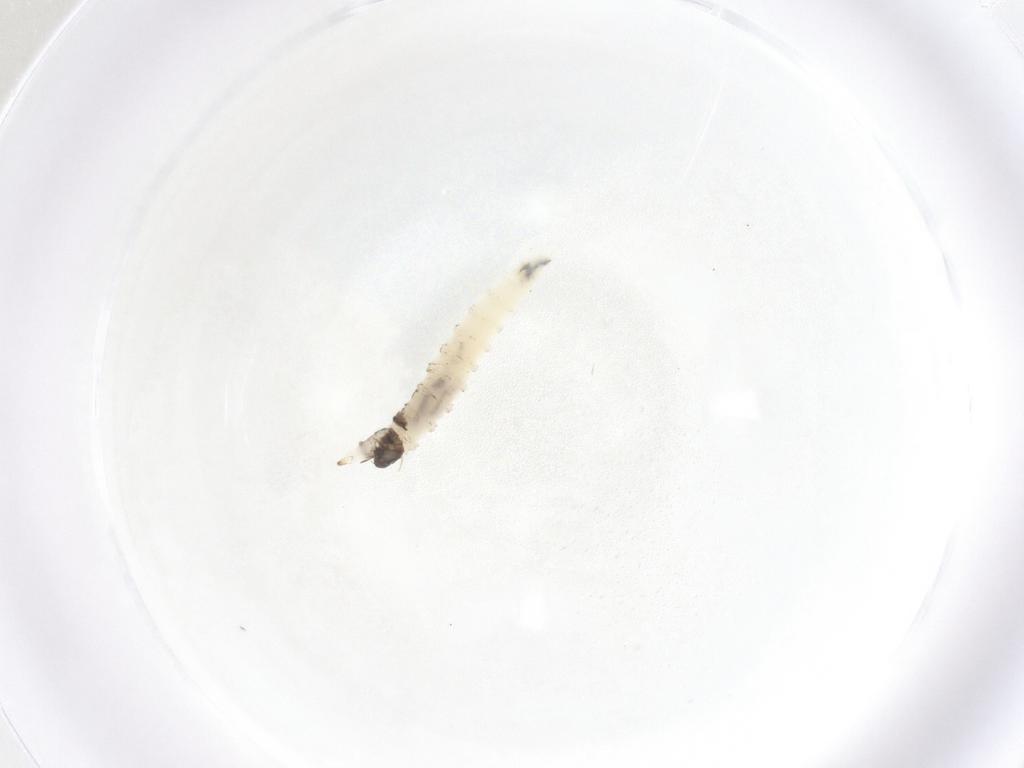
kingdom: Animalia
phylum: Arthropoda
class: Insecta
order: Diptera
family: Cecidomyiidae
